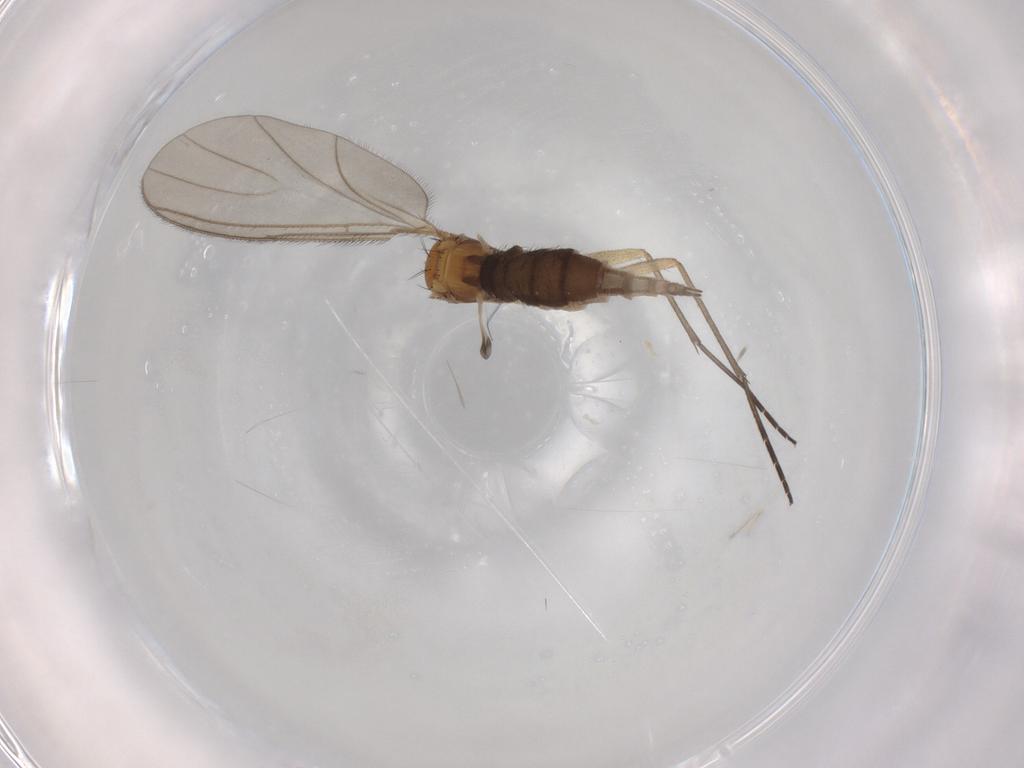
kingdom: Animalia
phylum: Arthropoda
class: Insecta
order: Diptera
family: Sciaridae
